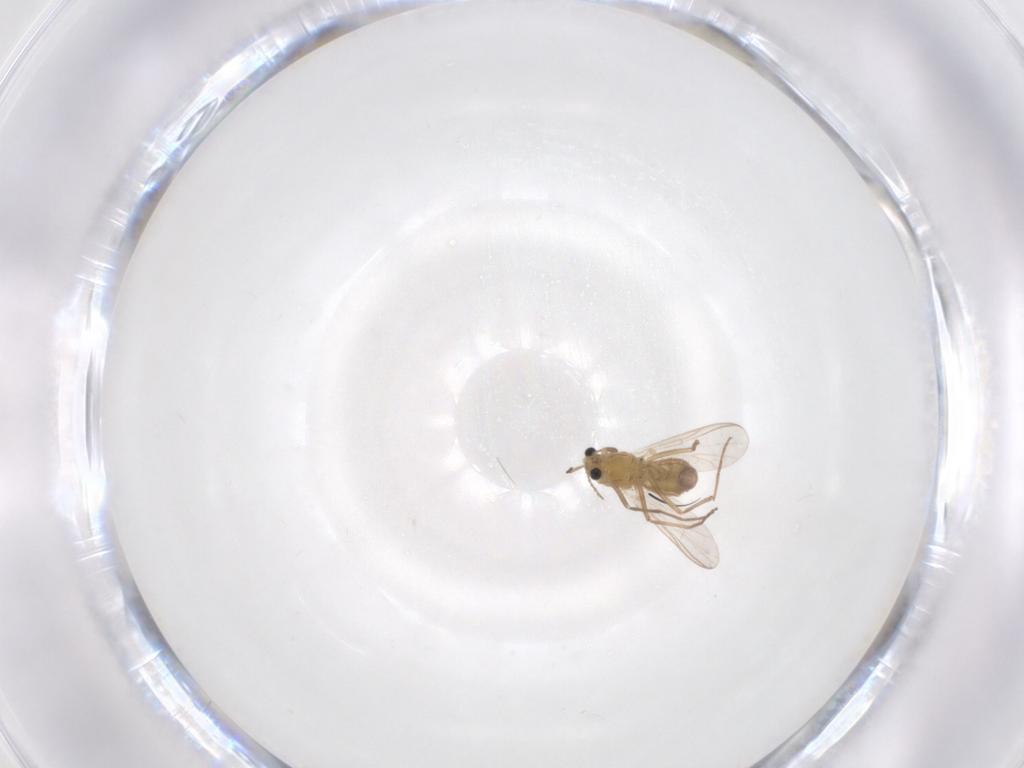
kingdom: Animalia
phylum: Arthropoda
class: Insecta
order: Diptera
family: Chironomidae
